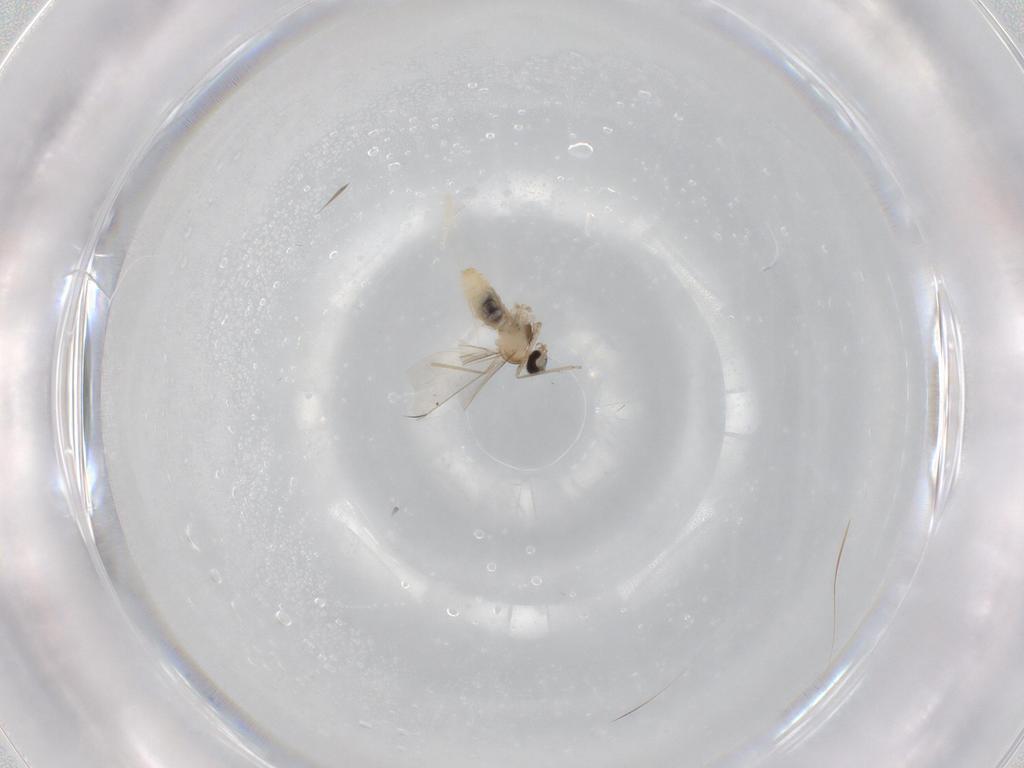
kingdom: Animalia
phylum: Arthropoda
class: Insecta
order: Diptera
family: Cecidomyiidae
